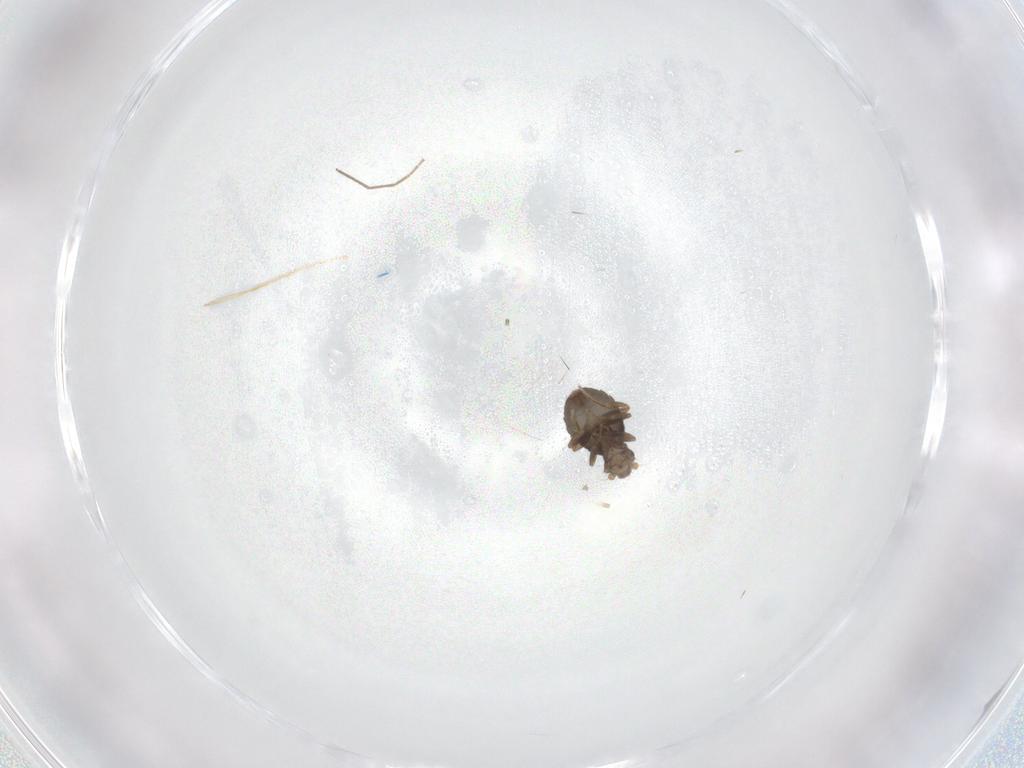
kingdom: Animalia
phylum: Arthropoda
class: Insecta
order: Diptera
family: Chironomidae
